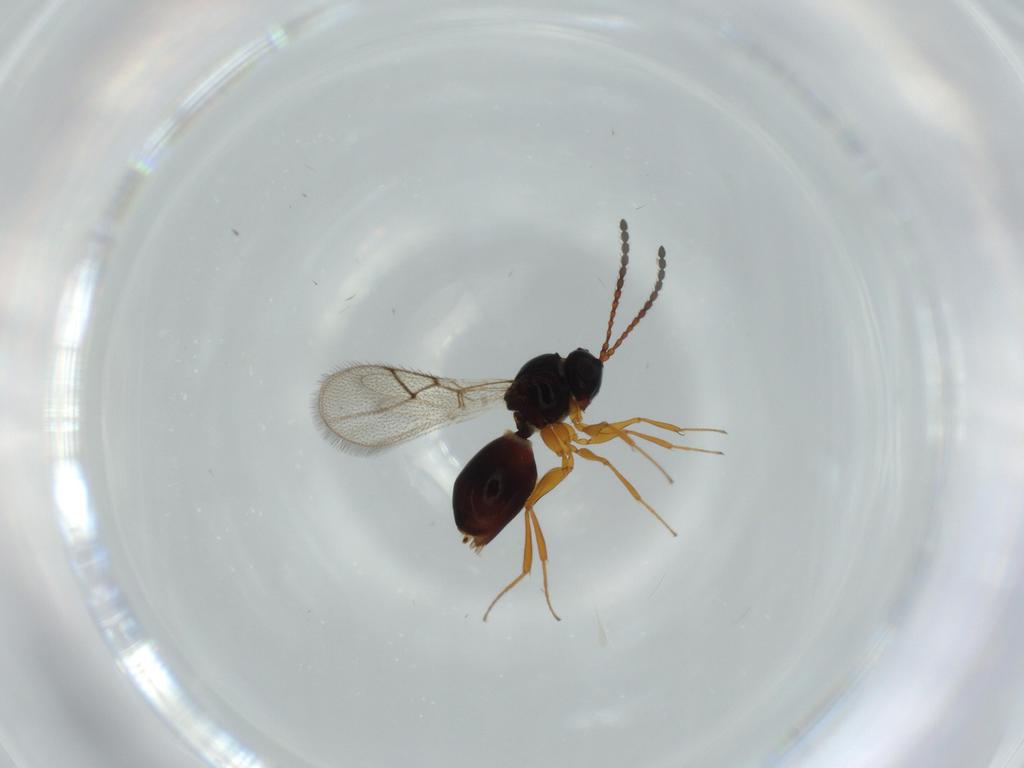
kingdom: Animalia
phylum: Arthropoda
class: Insecta
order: Hymenoptera
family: Figitidae
